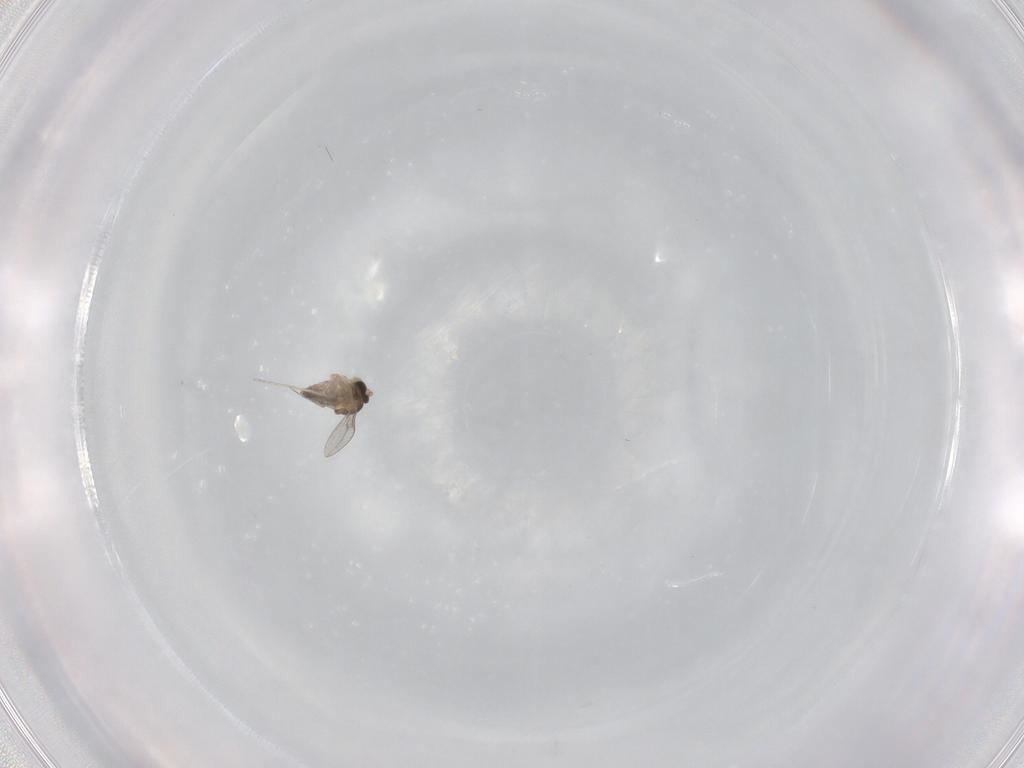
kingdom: Animalia
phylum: Arthropoda
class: Insecta
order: Diptera
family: Cecidomyiidae
